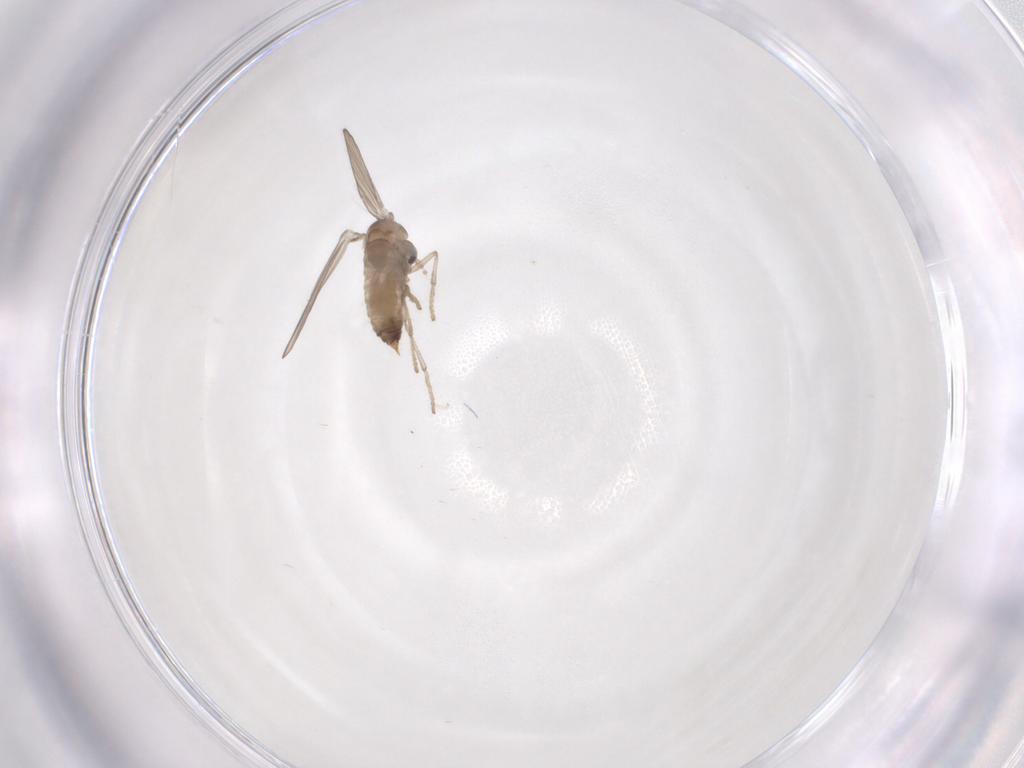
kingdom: Animalia
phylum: Arthropoda
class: Insecta
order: Diptera
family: Psychodidae
